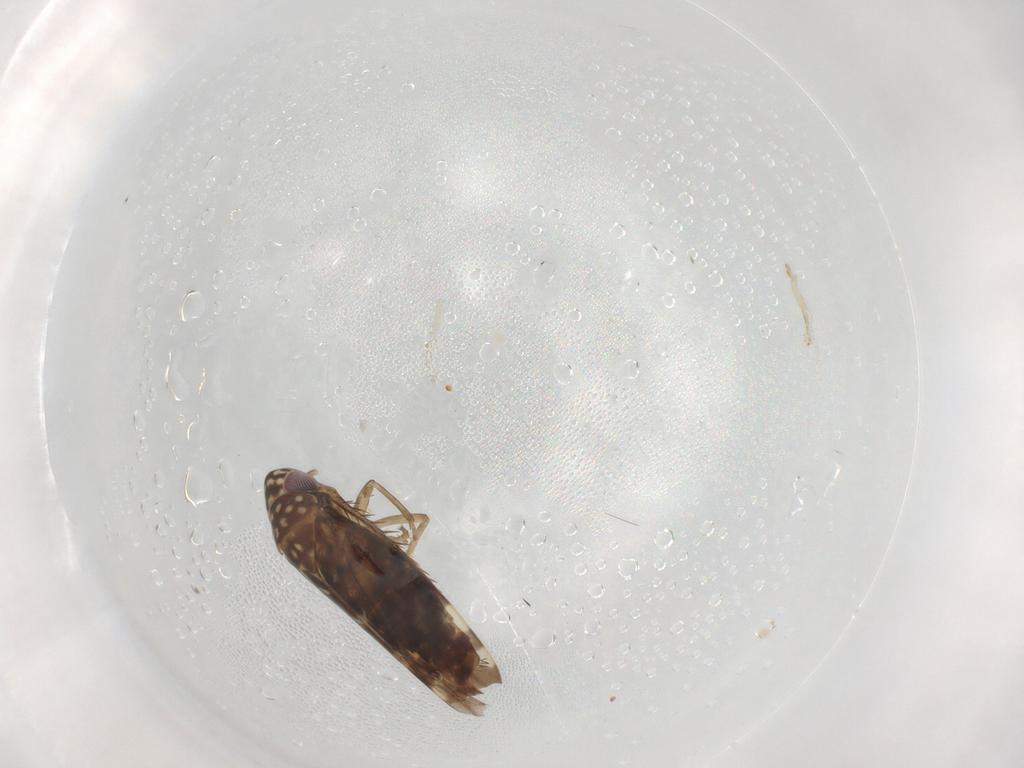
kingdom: Animalia
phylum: Arthropoda
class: Insecta
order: Hemiptera
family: Cicadellidae
